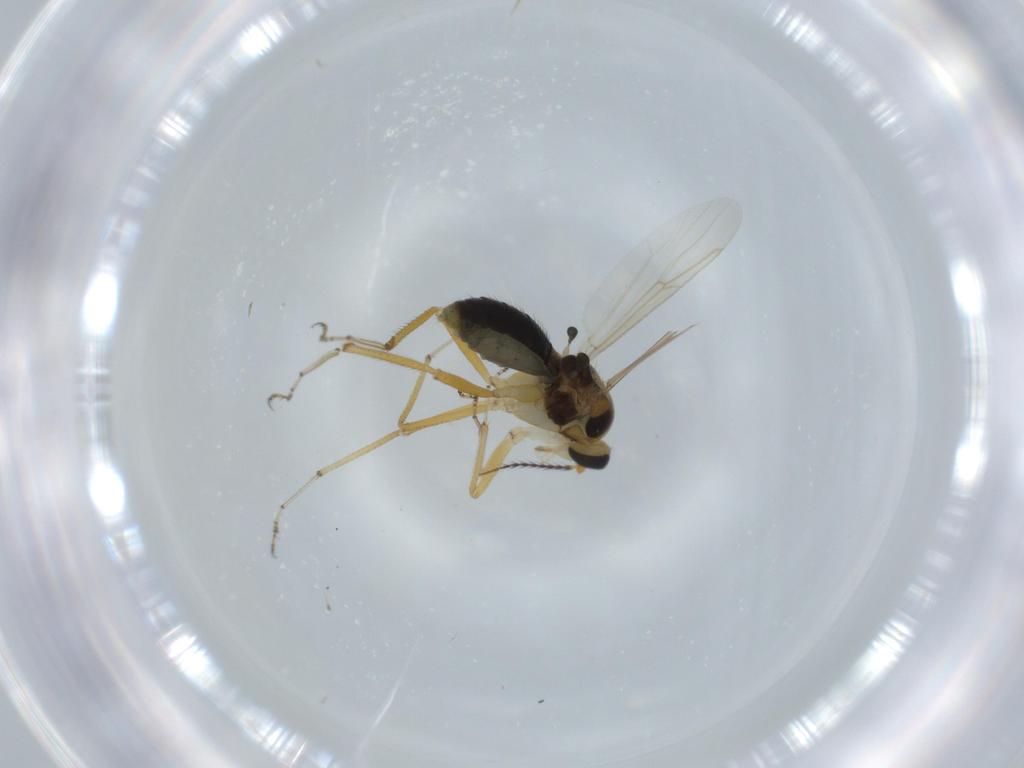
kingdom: Animalia
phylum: Arthropoda
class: Insecta
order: Diptera
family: Ceratopogonidae
